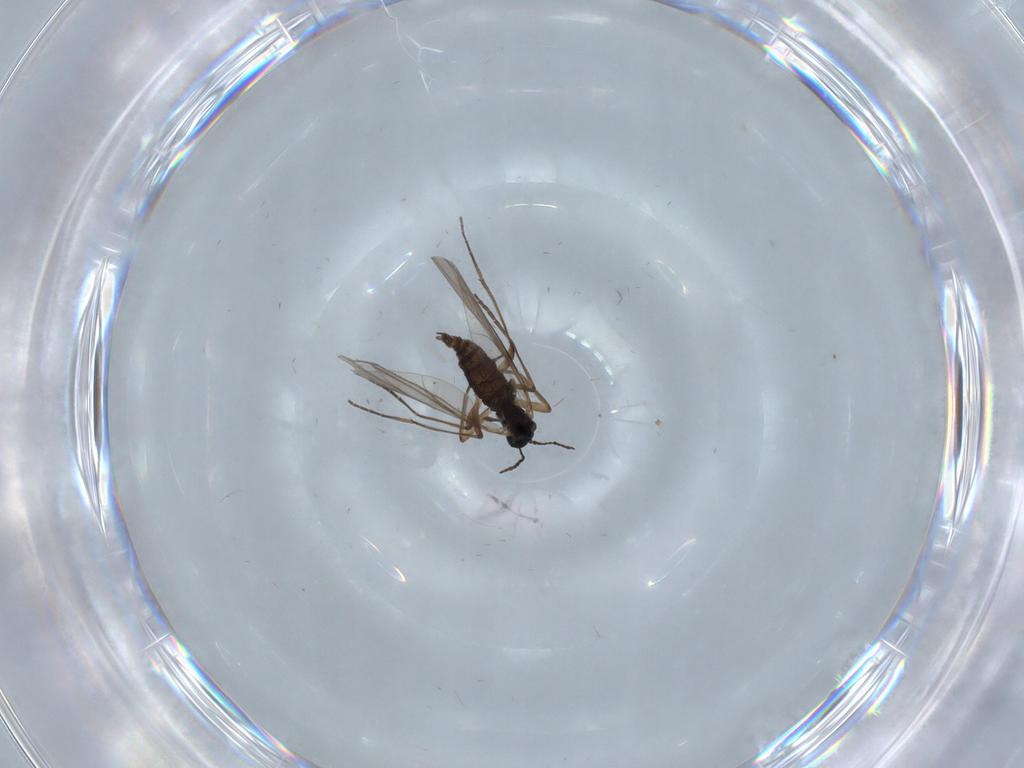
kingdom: Animalia
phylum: Arthropoda
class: Insecta
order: Diptera
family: Sciaridae
